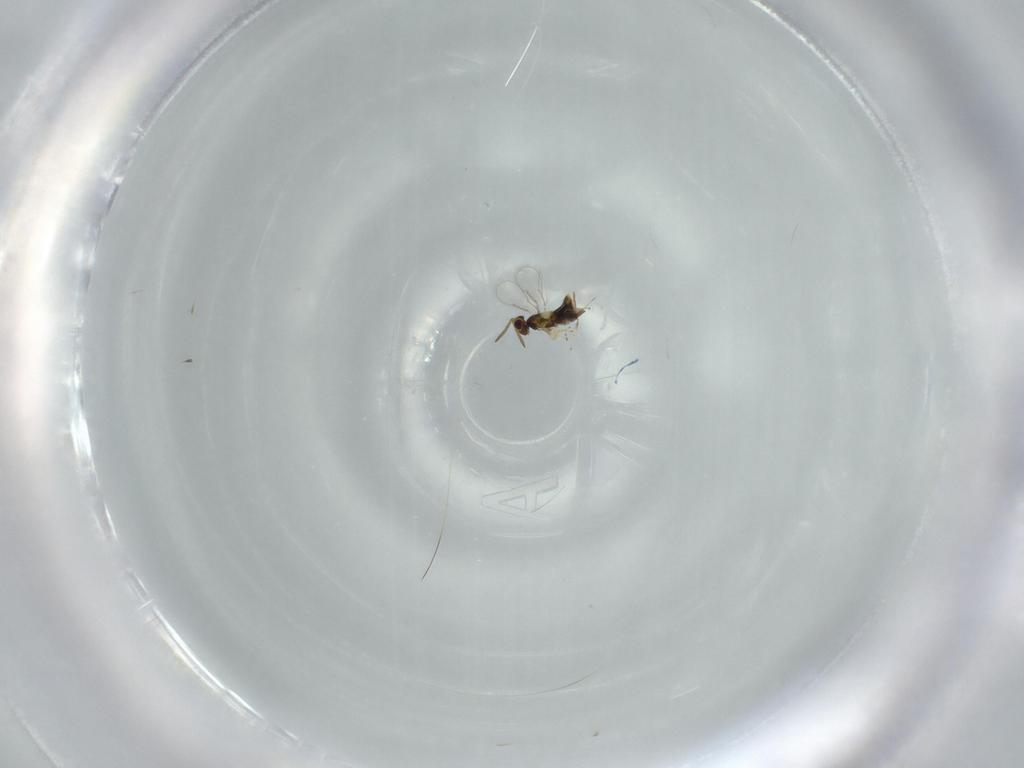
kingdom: Animalia
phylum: Arthropoda
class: Insecta
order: Hymenoptera
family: Aphelinidae
